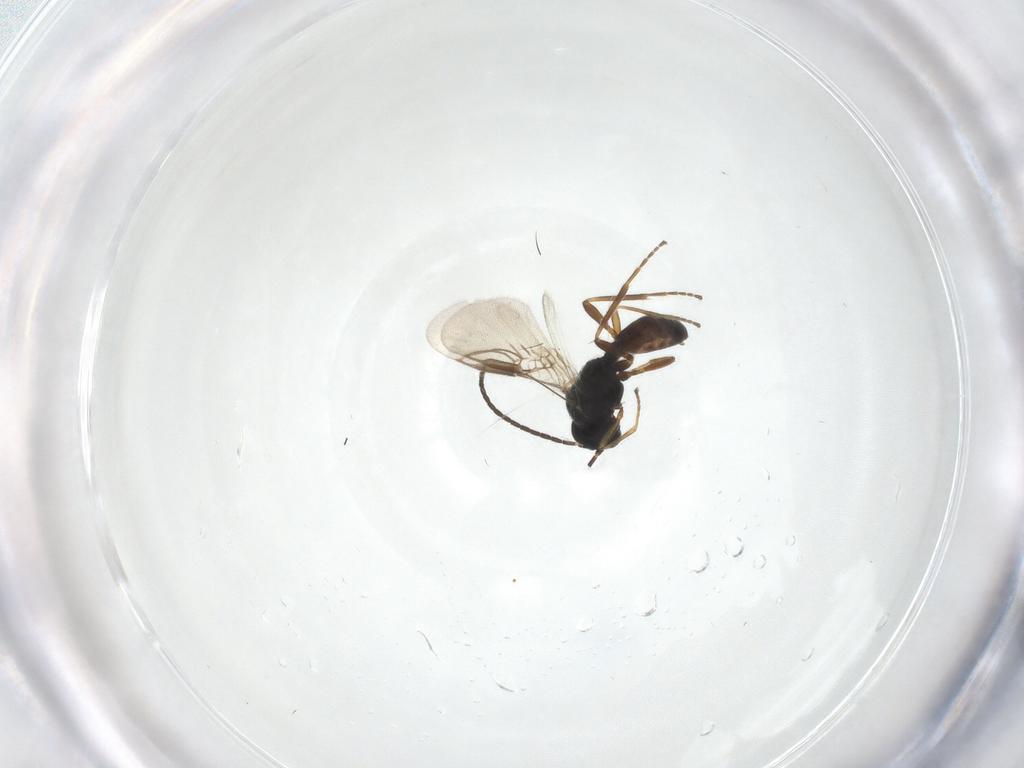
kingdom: Animalia
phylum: Arthropoda
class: Insecta
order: Hymenoptera
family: Braconidae
